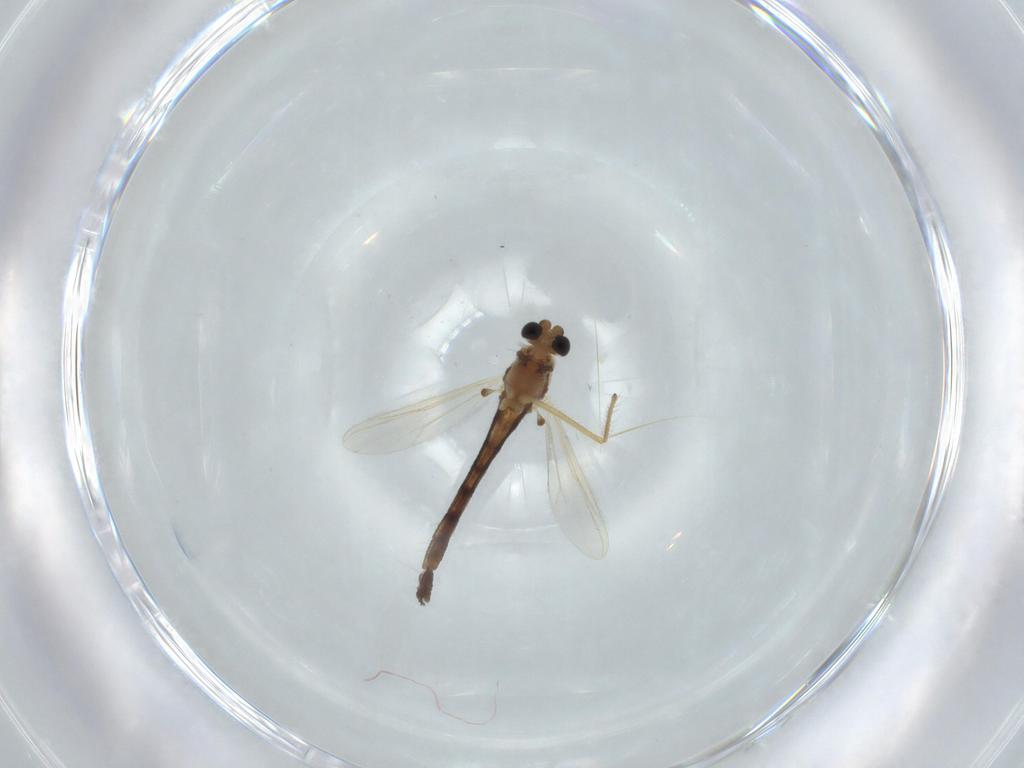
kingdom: Animalia
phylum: Arthropoda
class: Insecta
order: Diptera
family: Chironomidae
